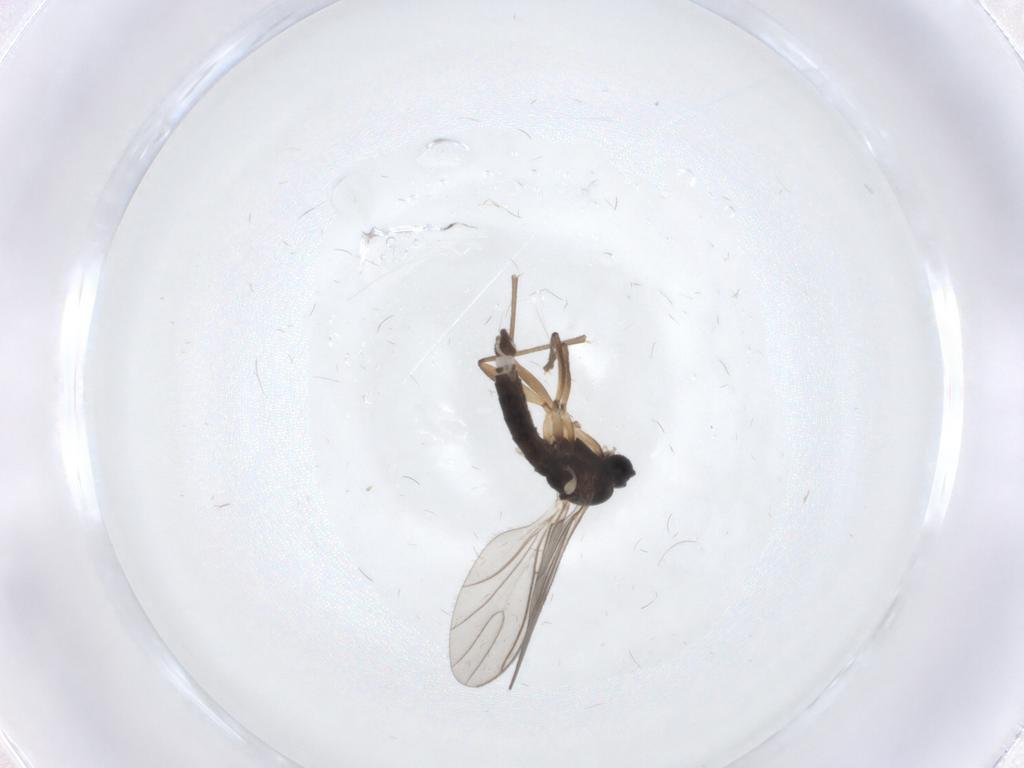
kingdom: Animalia
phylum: Arthropoda
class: Insecta
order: Diptera
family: Sciaridae
